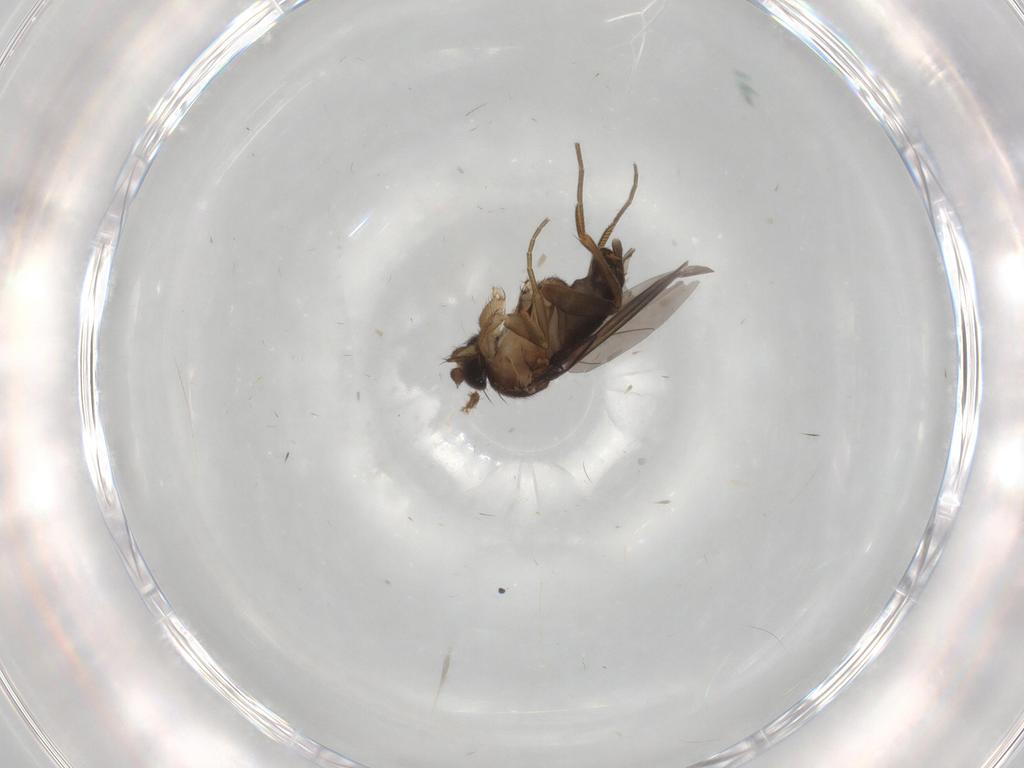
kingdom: Animalia
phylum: Arthropoda
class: Insecta
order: Diptera
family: Phoridae
